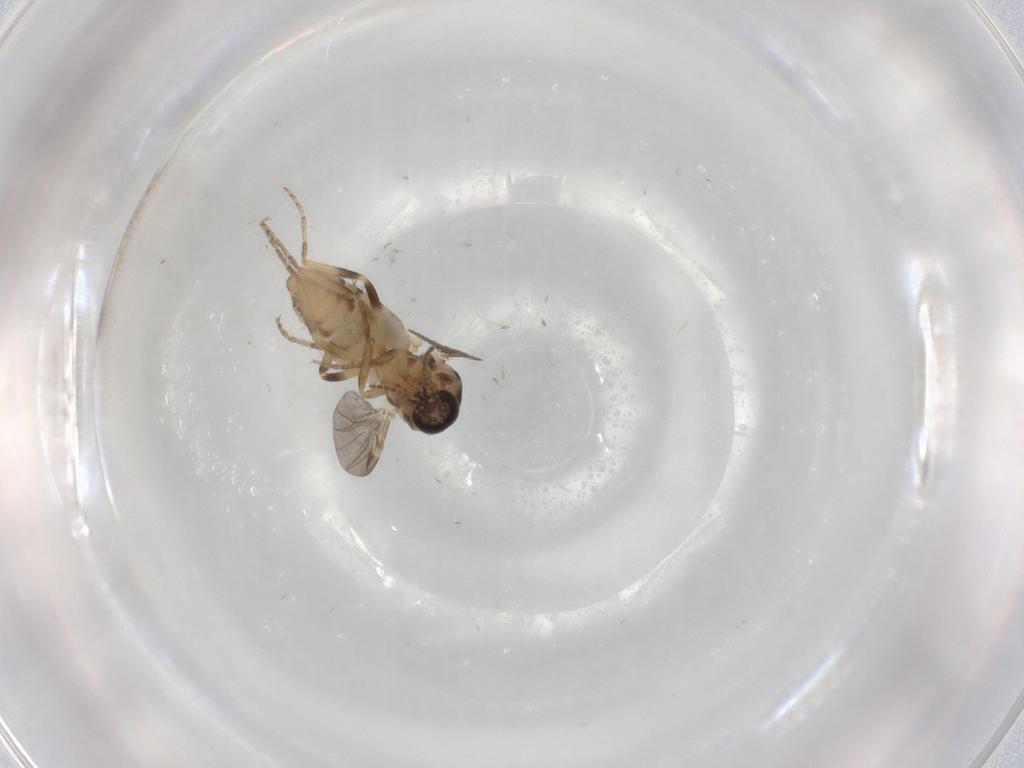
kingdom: Animalia
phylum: Arthropoda
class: Insecta
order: Diptera
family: Ceratopogonidae
